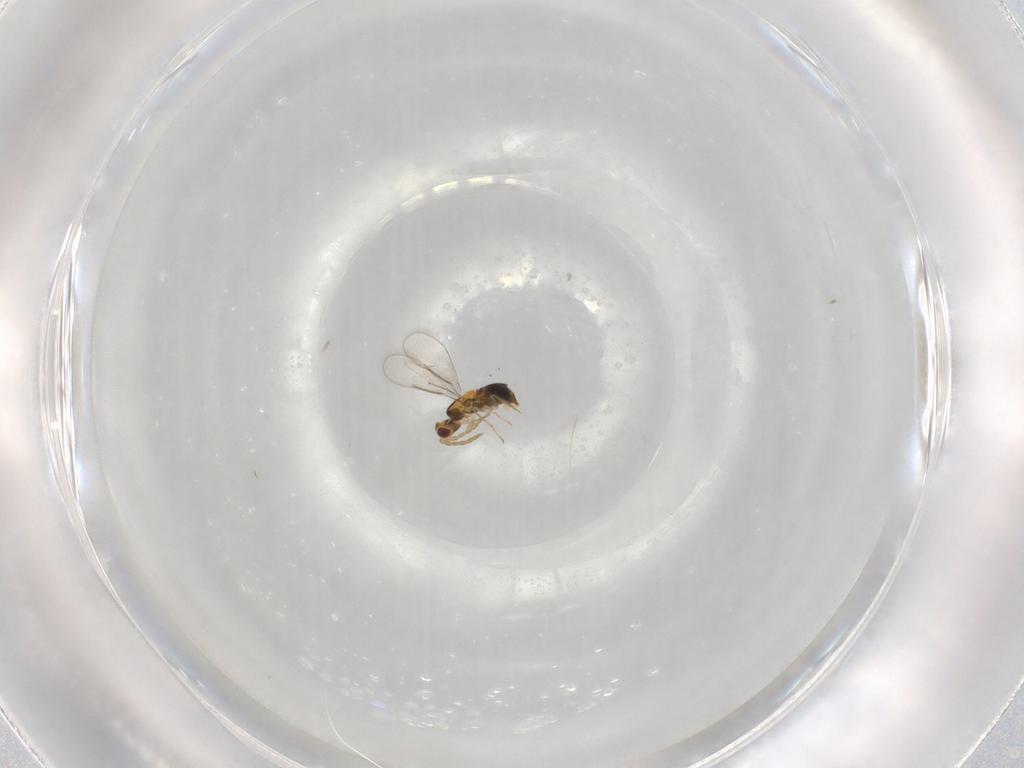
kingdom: Animalia
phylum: Arthropoda
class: Insecta
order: Hymenoptera
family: Aphelinidae
